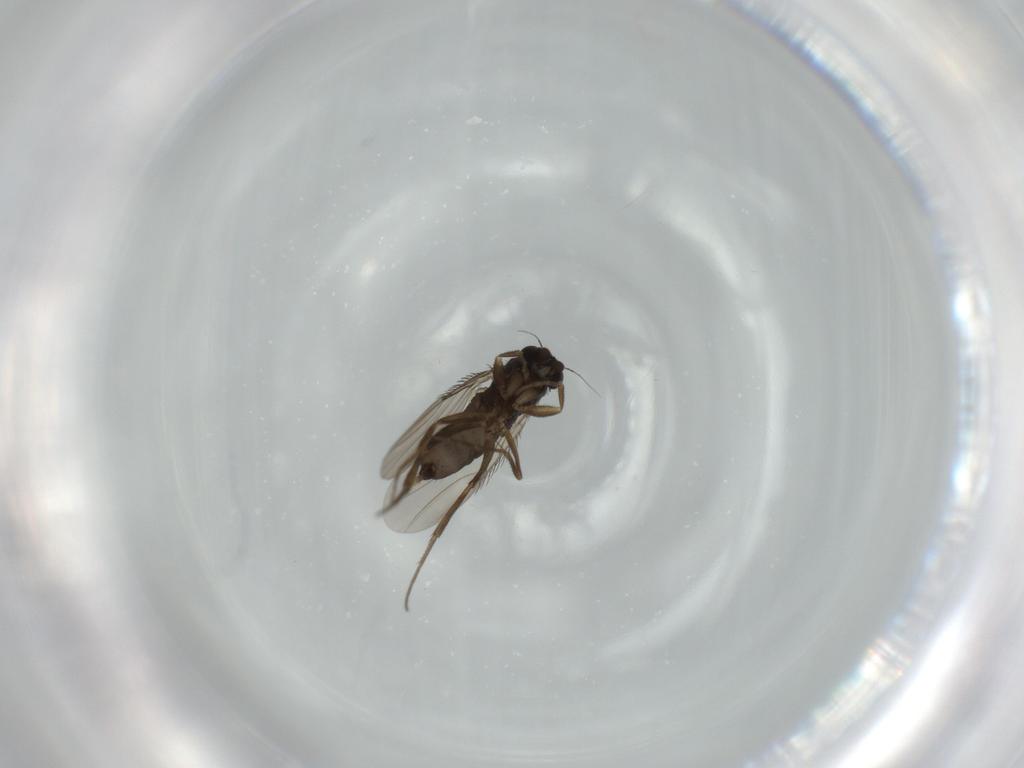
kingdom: Animalia
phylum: Arthropoda
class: Insecta
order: Diptera
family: Phoridae
